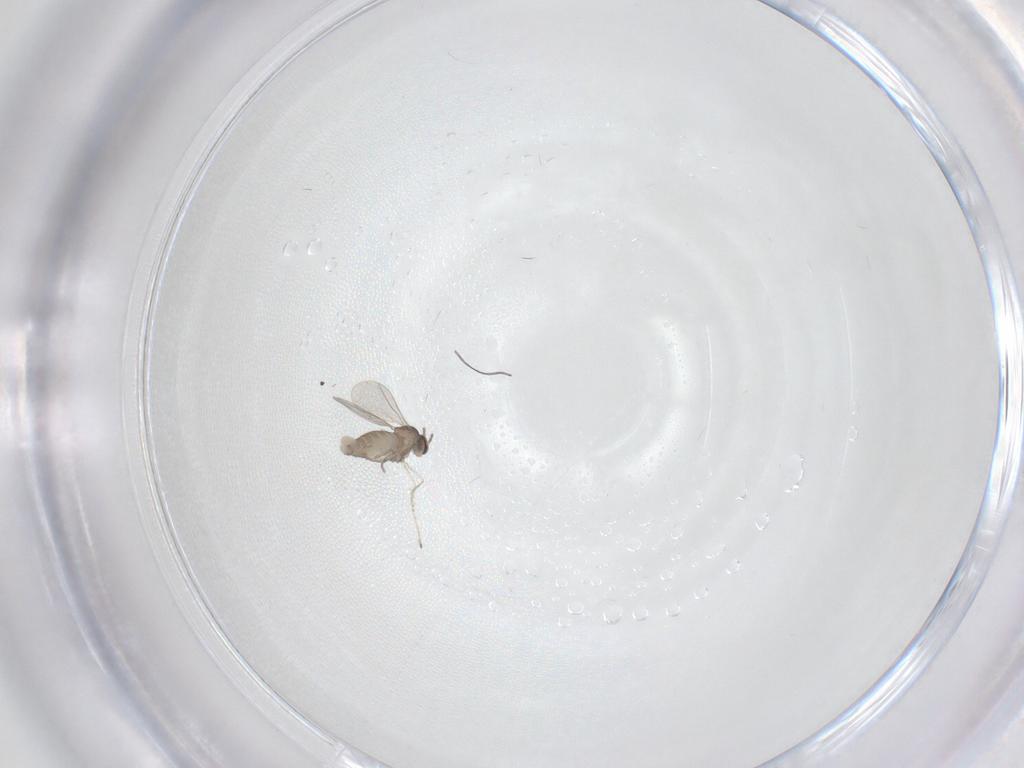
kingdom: Animalia
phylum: Arthropoda
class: Insecta
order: Diptera
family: Cecidomyiidae
